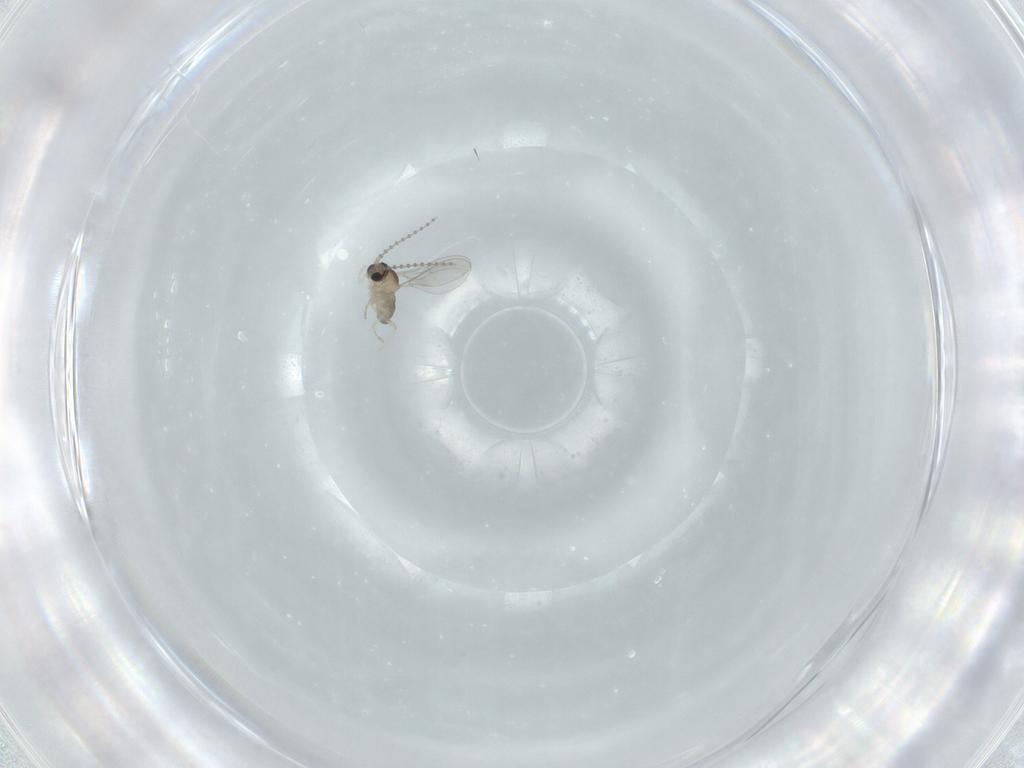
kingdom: Animalia
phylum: Arthropoda
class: Insecta
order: Diptera
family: Cecidomyiidae
